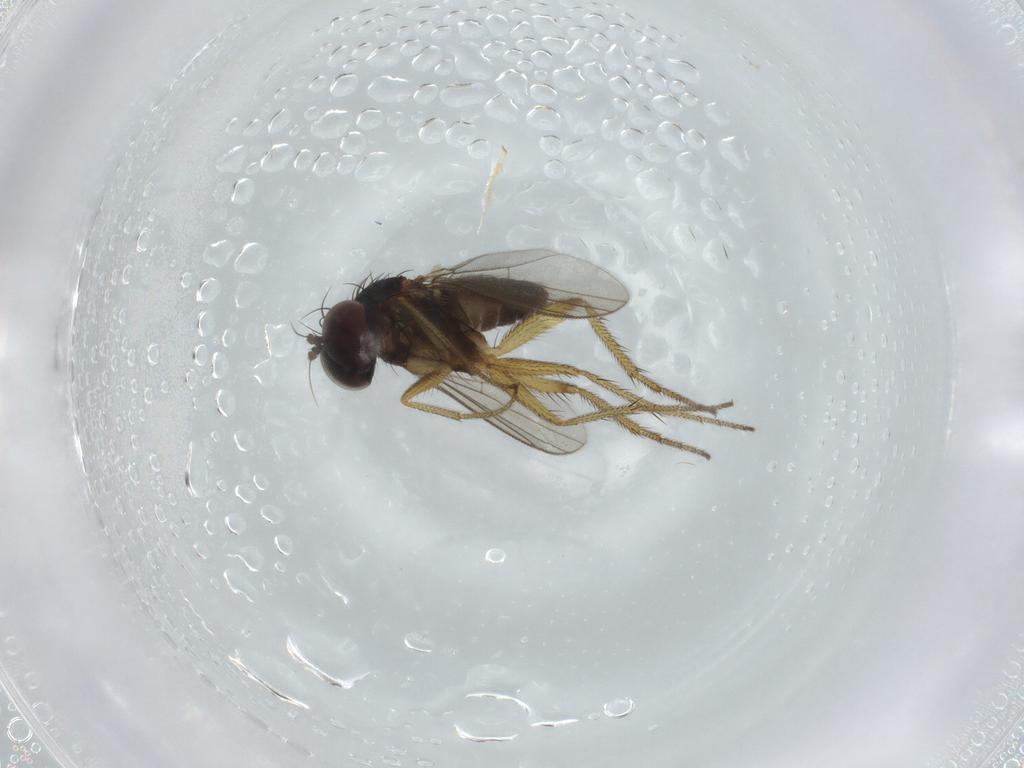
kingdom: Animalia
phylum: Arthropoda
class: Insecta
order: Diptera
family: Dolichopodidae
